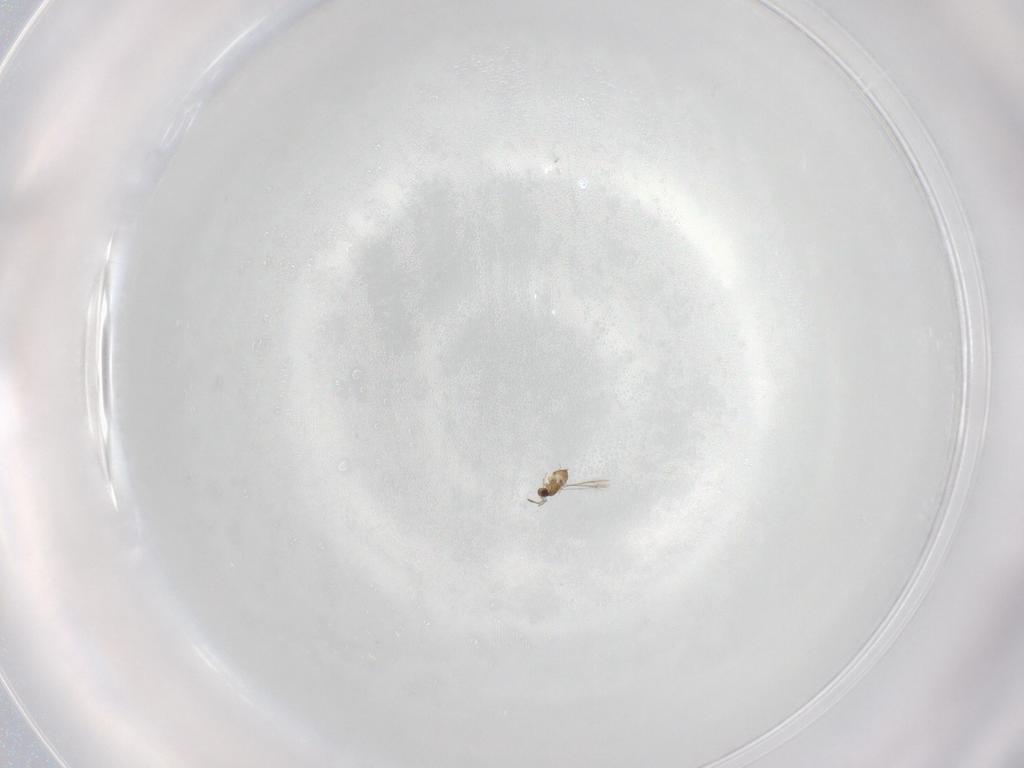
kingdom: Animalia
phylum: Arthropoda
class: Insecta
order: Hymenoptera
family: Mymaridae
